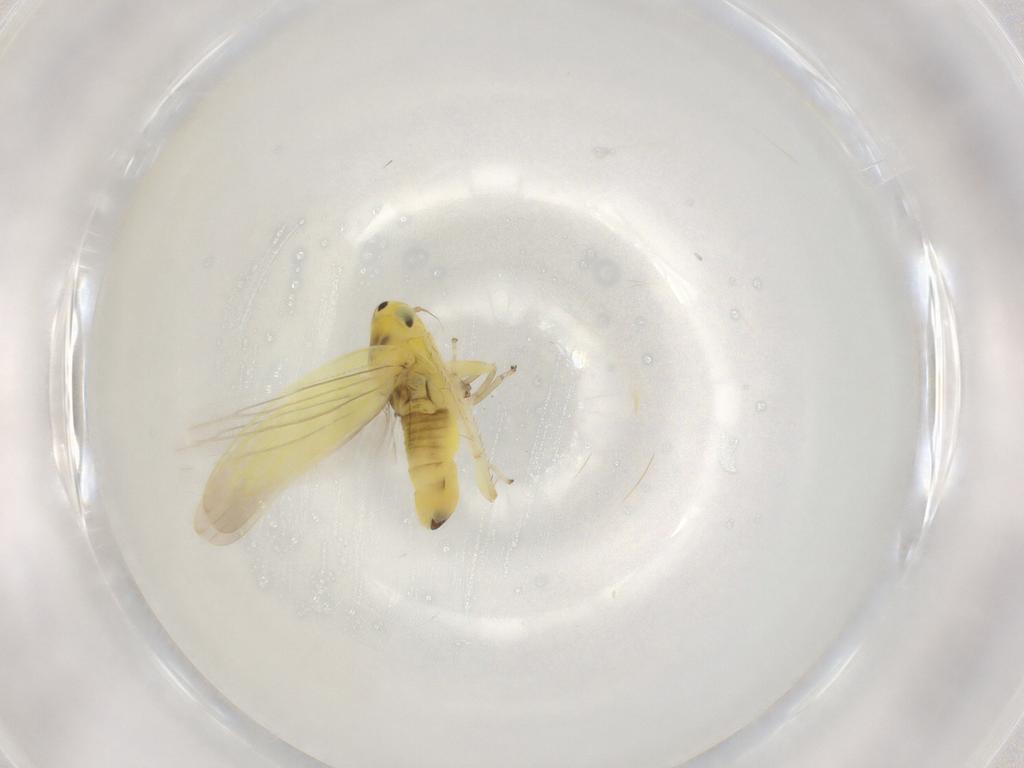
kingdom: Animalia
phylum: Arthropoda
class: Insecta
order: Hemiptera
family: Cicadellidae
